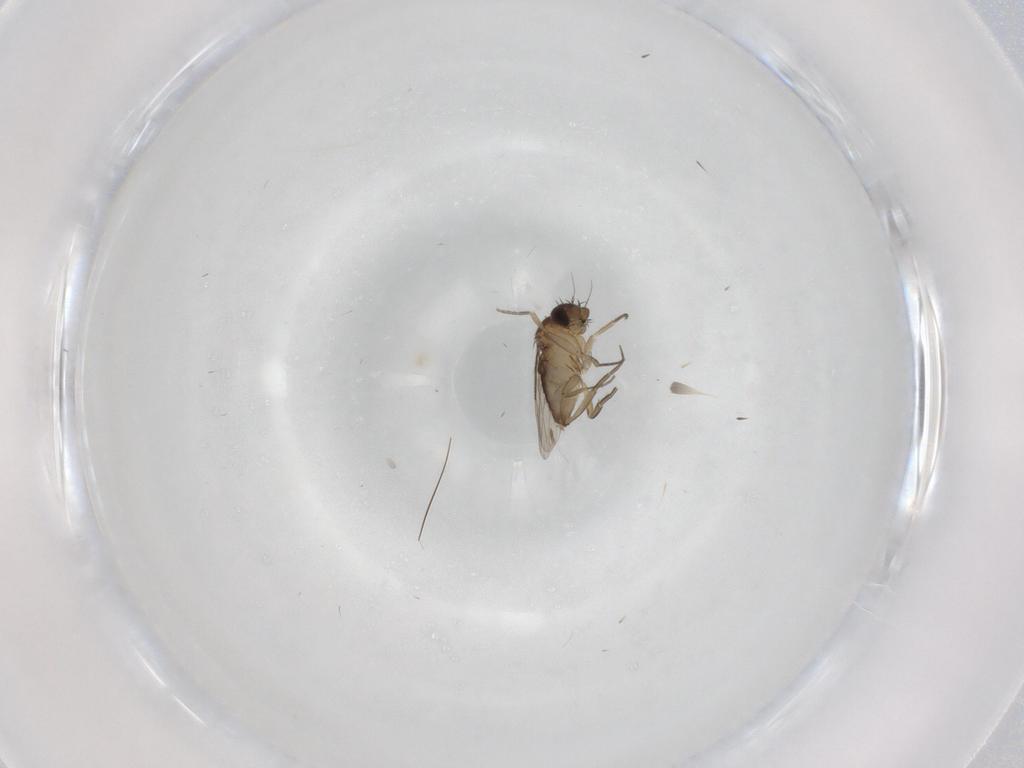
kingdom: Animalia
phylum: Arthropoda
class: Insecta
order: Diptera
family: Phoridae
